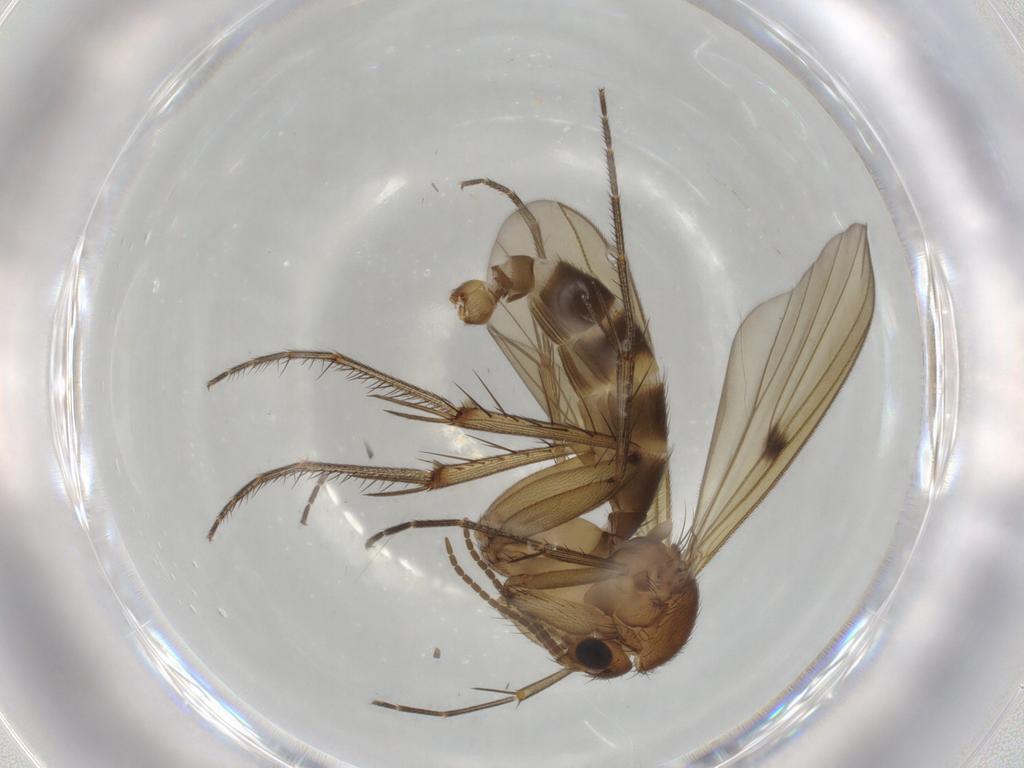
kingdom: Animalia
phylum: Arthropoda
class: Insecta
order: Diptera
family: Mycetophilidae
